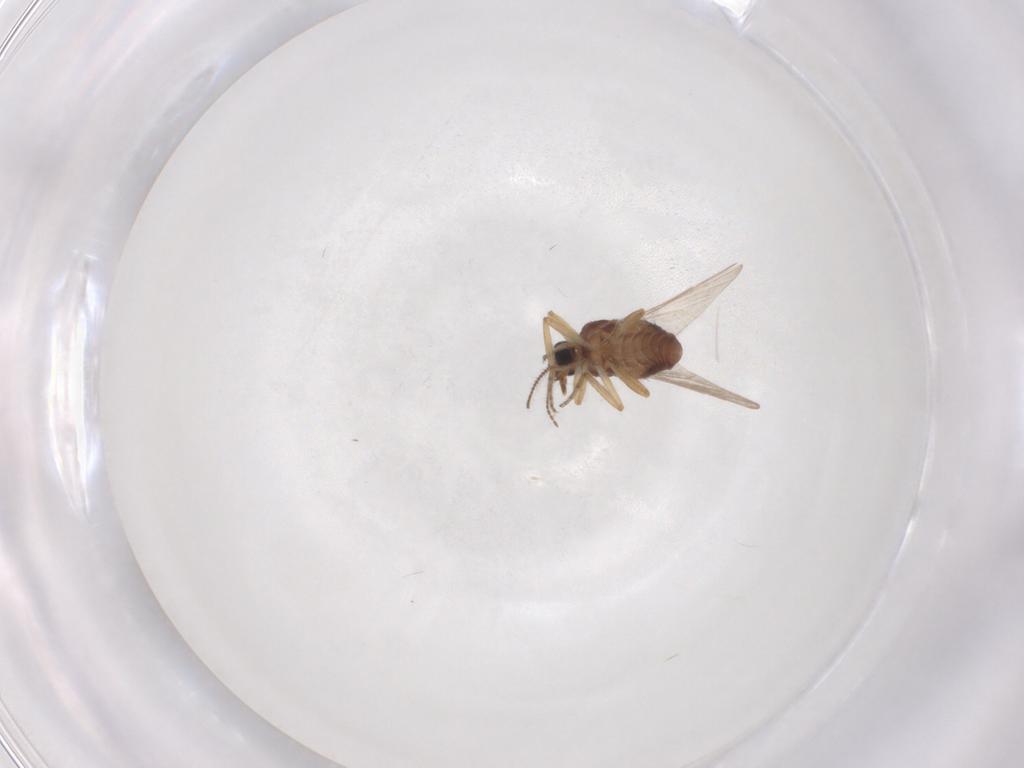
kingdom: Animalia
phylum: Arthropoda
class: Insecta
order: Diptera
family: Ceratopogonidae
